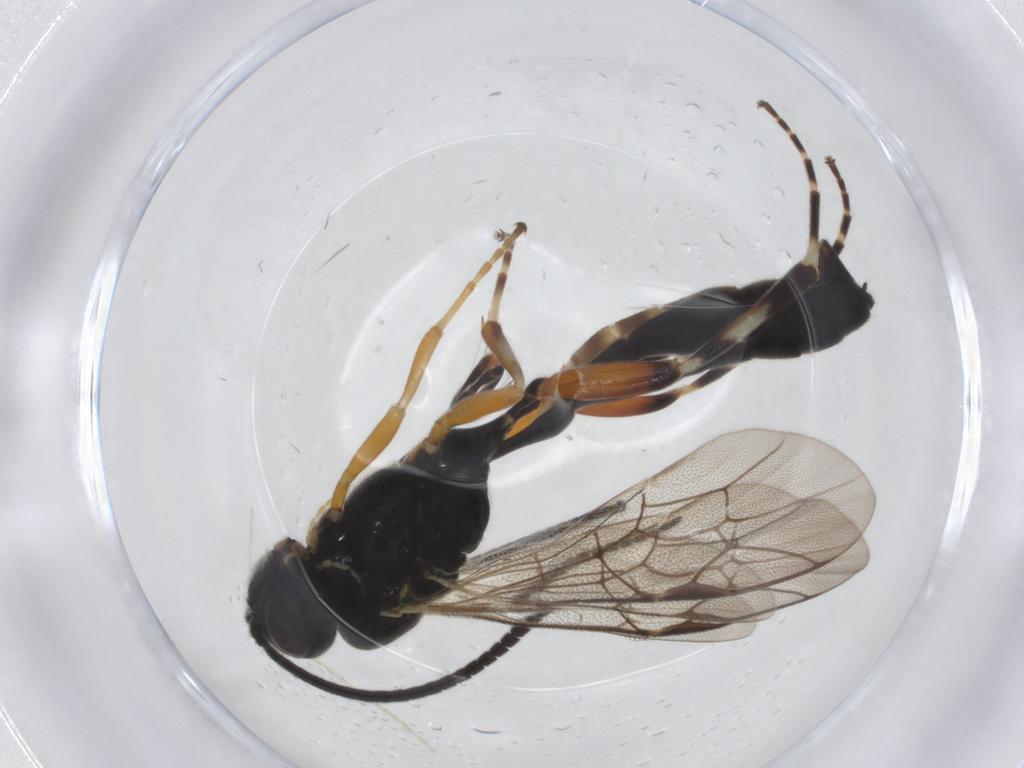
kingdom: Animalia
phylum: Arthropoda
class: Insecta
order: Hymenoptera
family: Ichneumonidae
